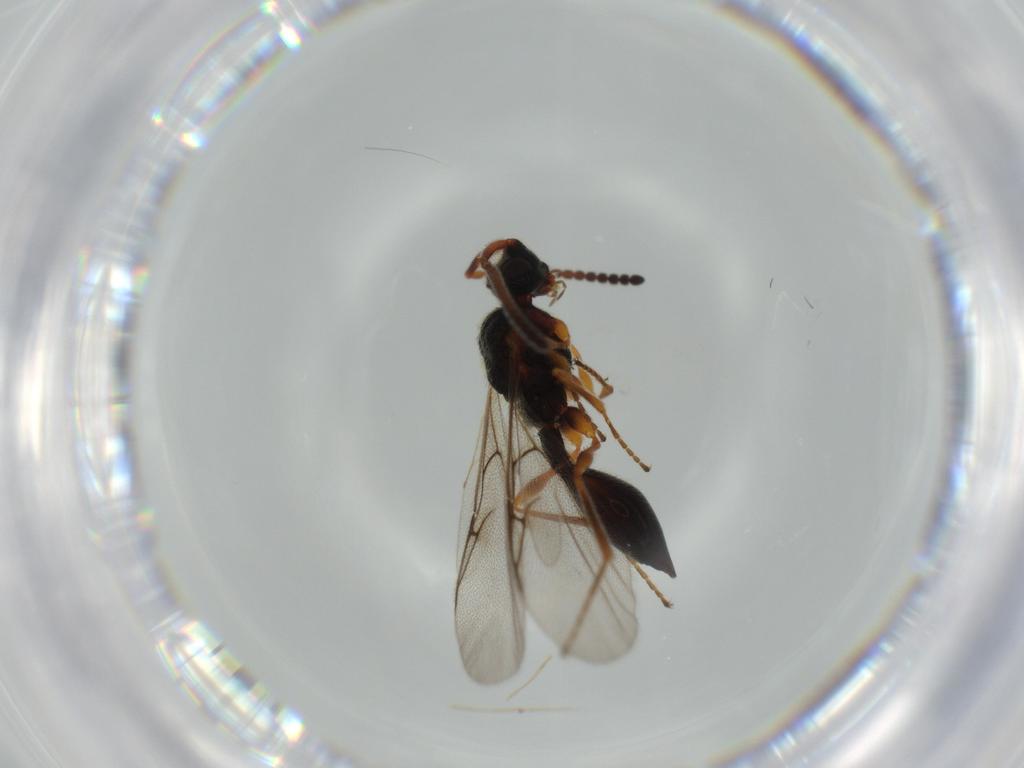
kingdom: Animalia
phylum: Arthropoda
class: Insecta
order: Hymenoptera
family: Diapriidae
